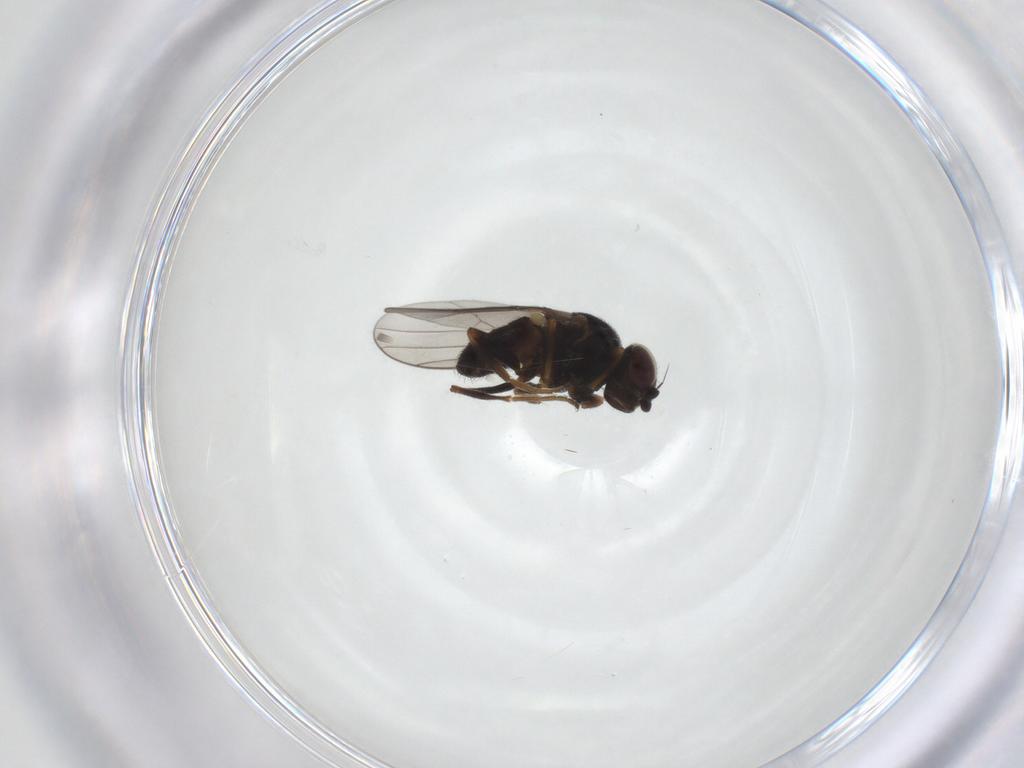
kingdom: Animalia
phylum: Arthropoda
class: Insecta
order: Diptera
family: Chloropidae
